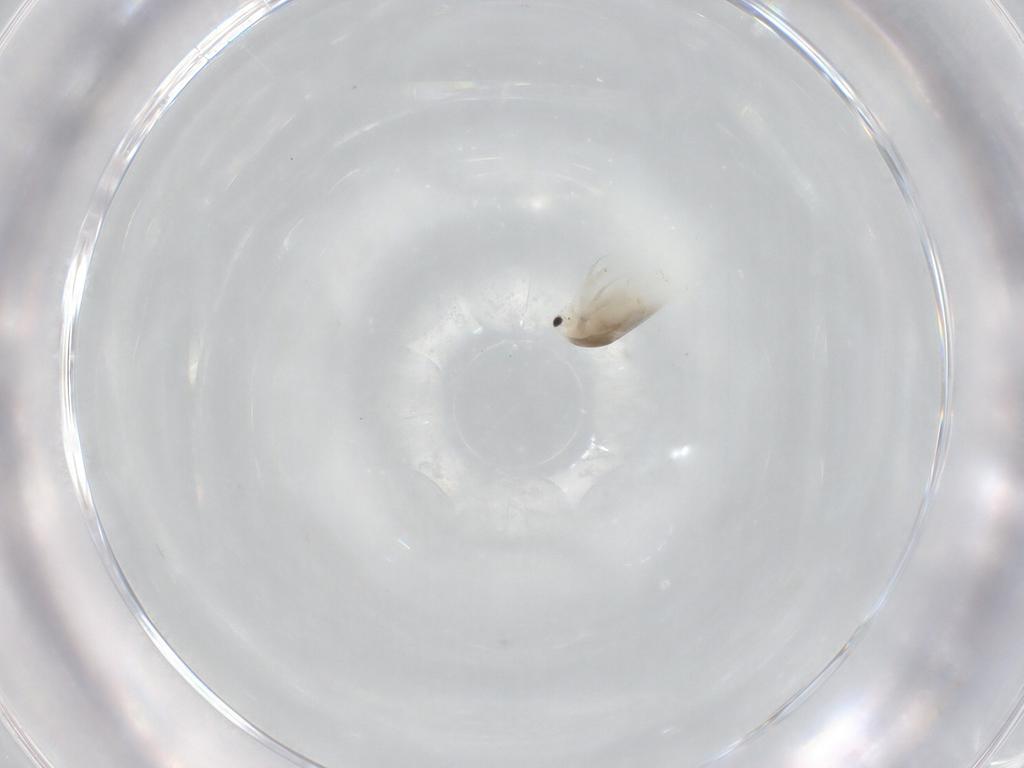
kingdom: Animalia
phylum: Arthropoda
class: Branchiopoda
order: Diplostraca
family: Daphniidae
